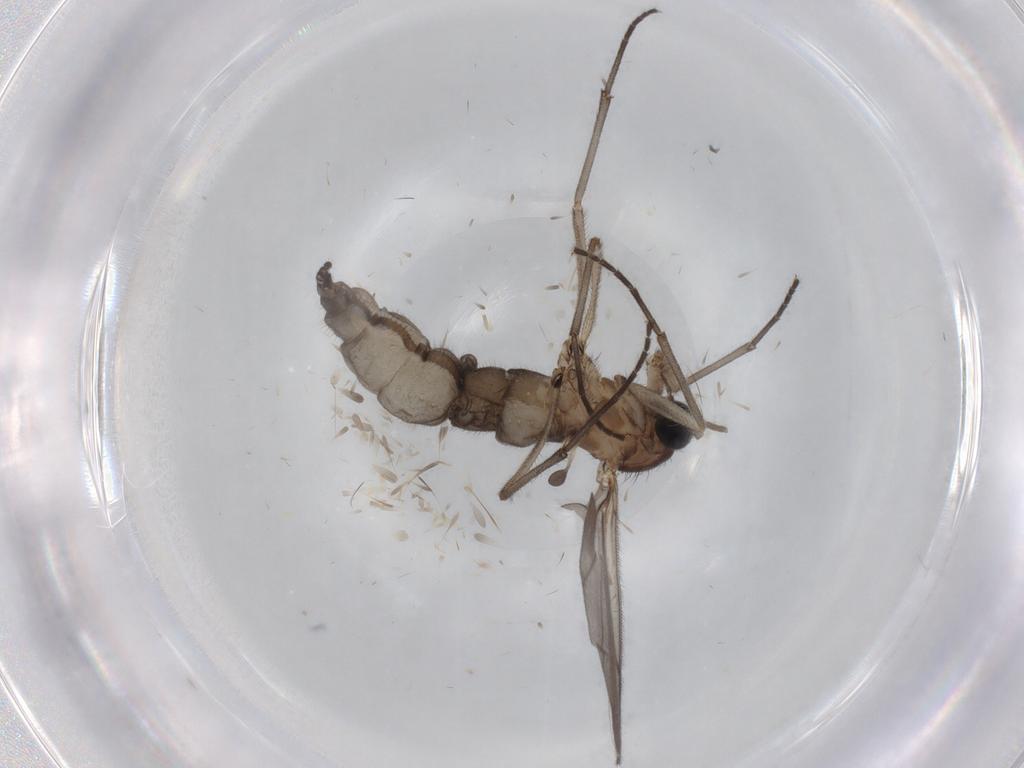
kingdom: Animalia
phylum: Arthropoda
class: Insecta
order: Diptera
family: Phoridae
